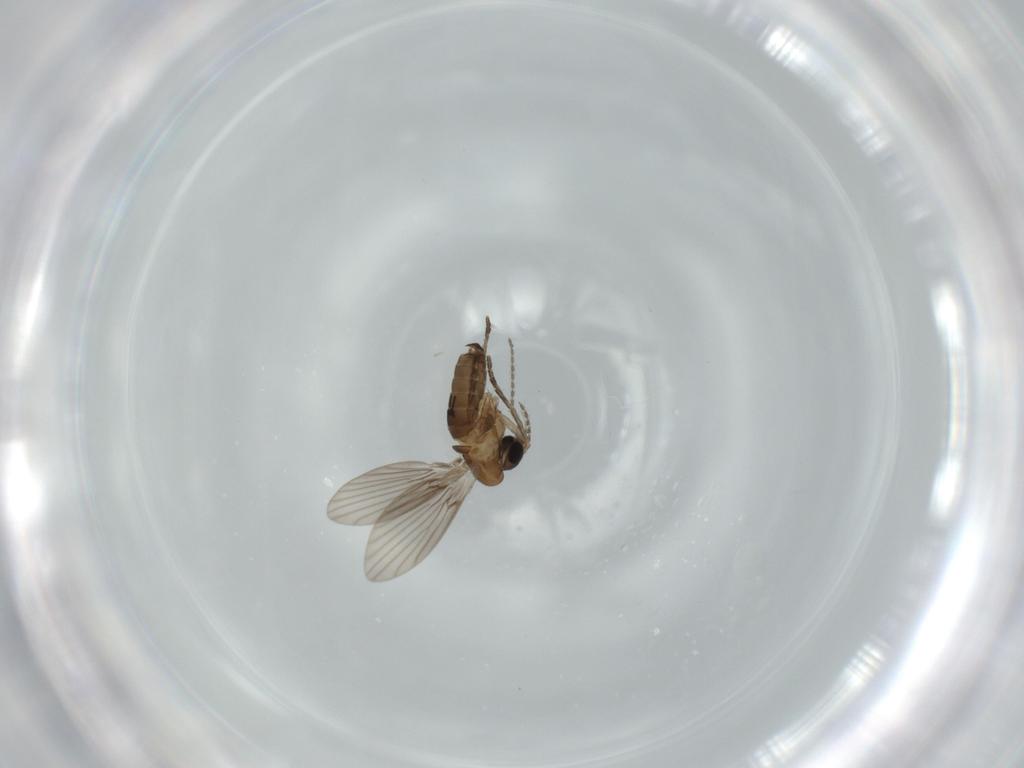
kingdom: Animalia
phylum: Arthropoda
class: Insecta
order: Diptera
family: Psychodidae
